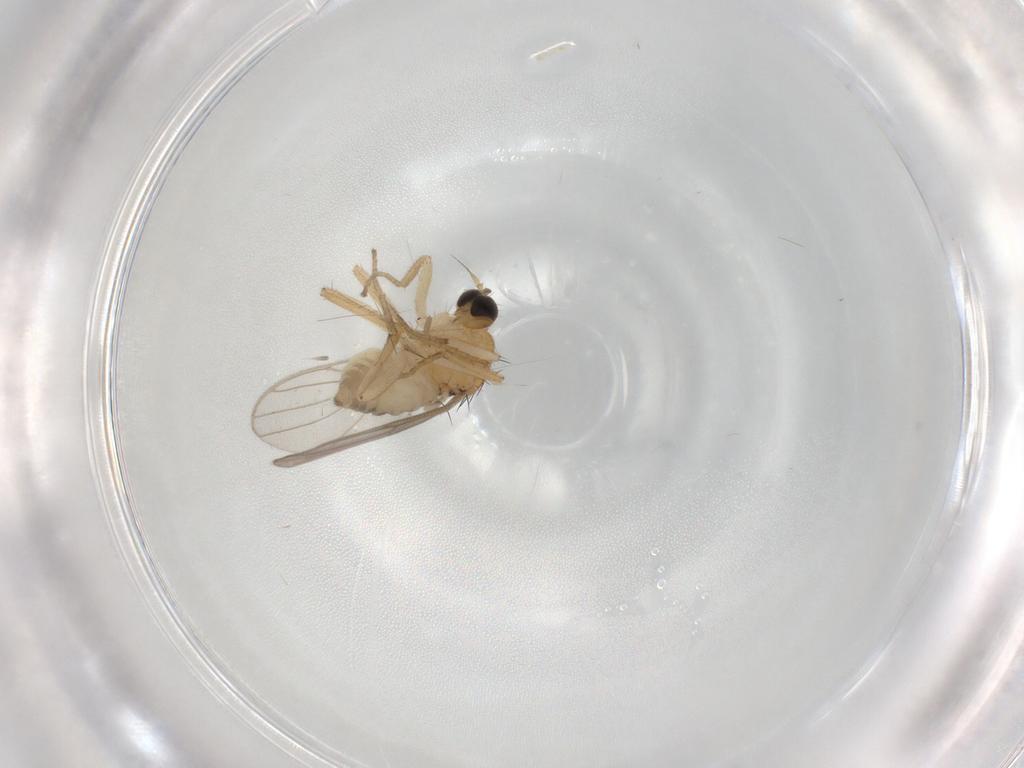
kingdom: Animalia
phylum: Arthropoda
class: Insecta
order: Diptera
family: Hybotidae
